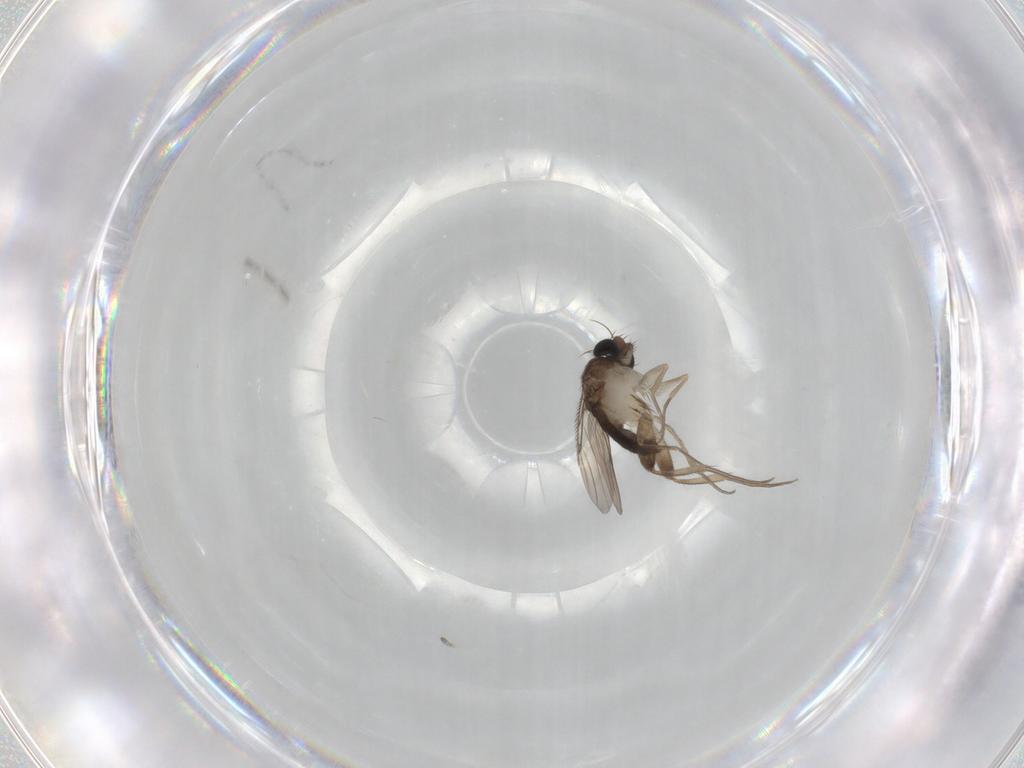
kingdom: Animalia
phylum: Arthropoda
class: Insecta
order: Diptera
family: Phoridae
